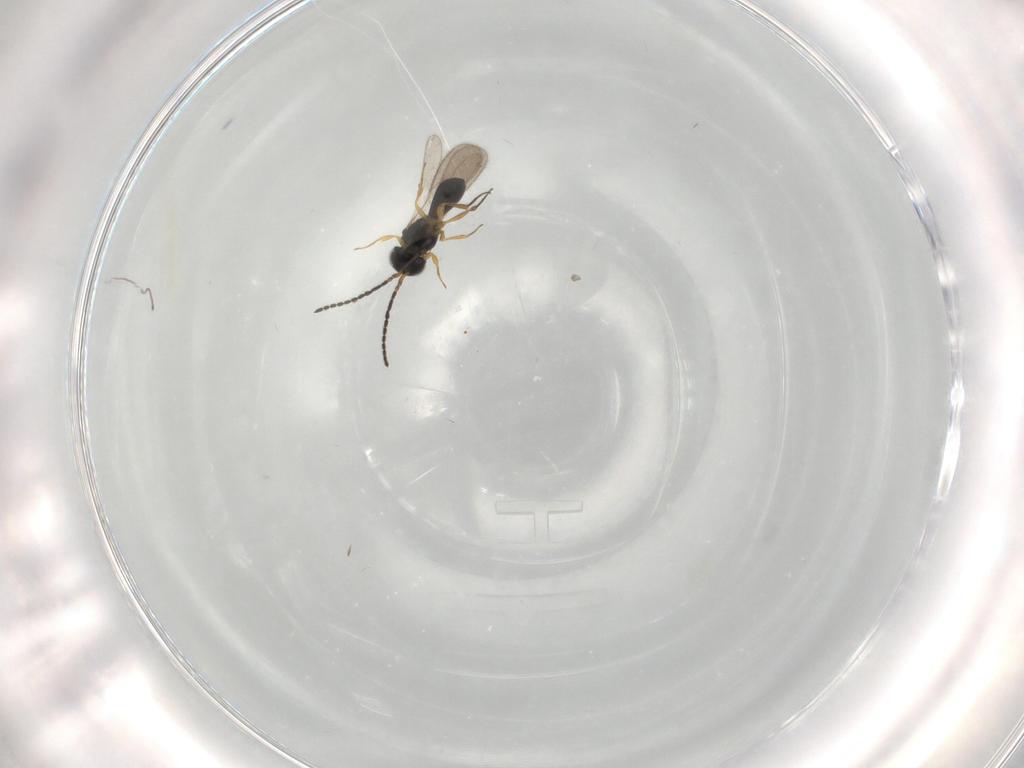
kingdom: Animalia
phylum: Arthropoda
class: Insecta
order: Hymenoptera
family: Scelionidae
